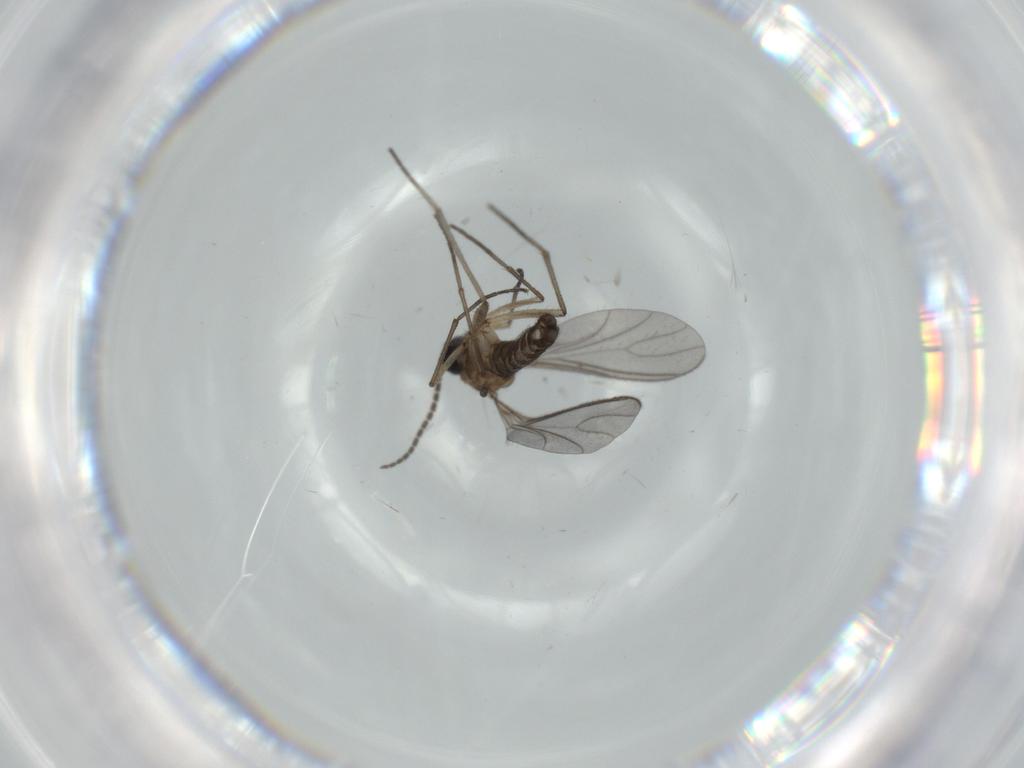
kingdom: Animalia
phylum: Arthropoda
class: Insecta
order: Diptera
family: Sciaridae
